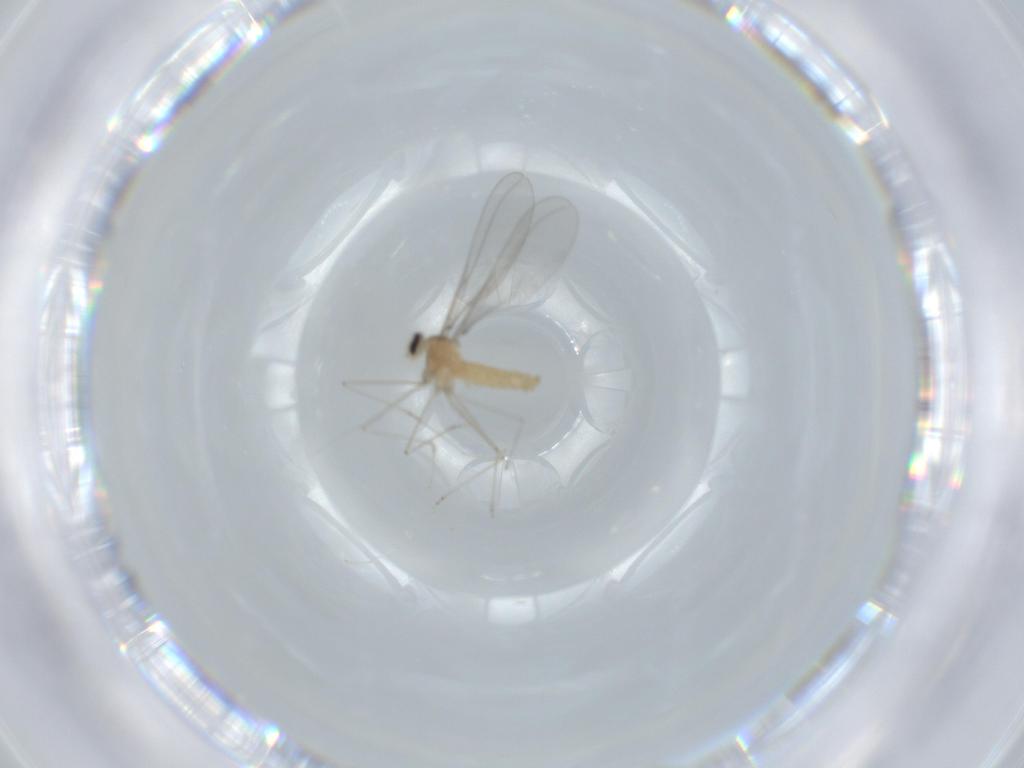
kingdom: Animalia
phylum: Arthropoda
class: Insecta
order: Diptera
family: Cecidomyiidae
